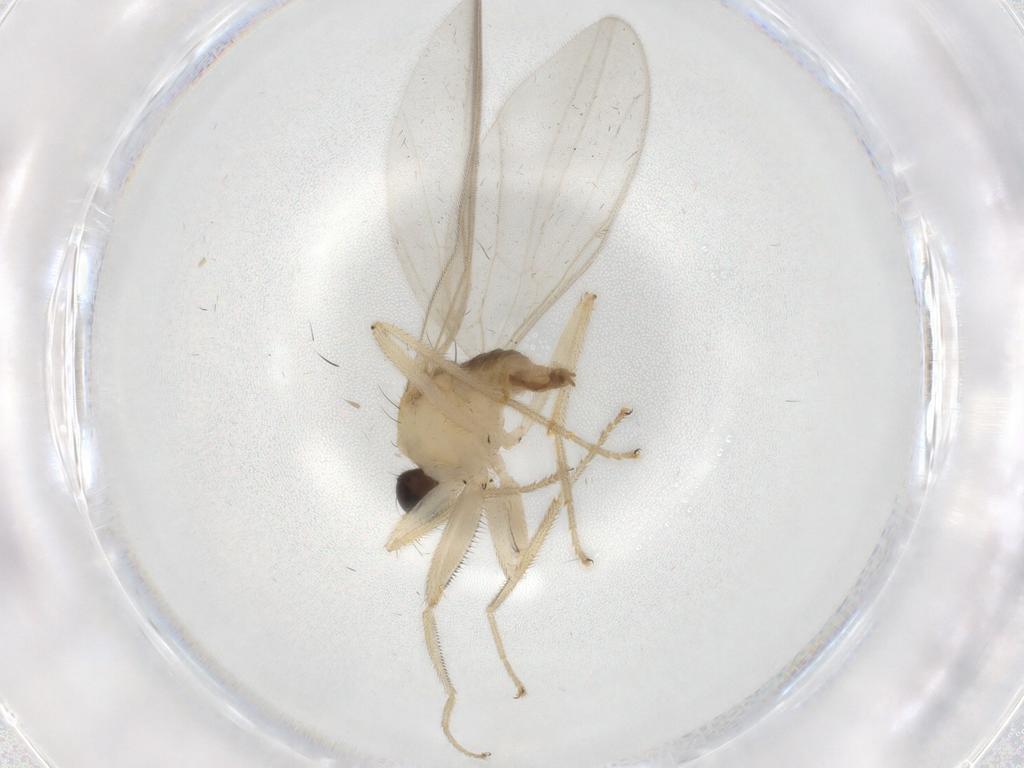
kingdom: Animalia
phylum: Arthropoda
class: Insecta
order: Diptera
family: Hybotidae
